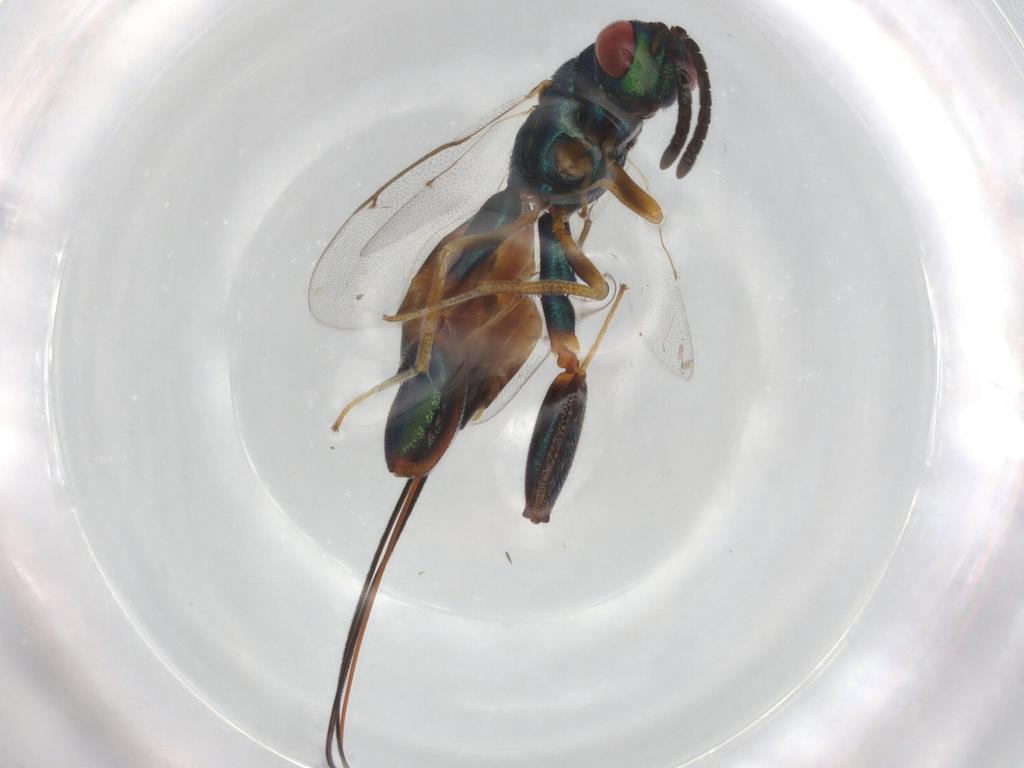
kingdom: Animalia
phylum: Arthropoda
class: Insecta
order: Hymenoptera
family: Torymidae
